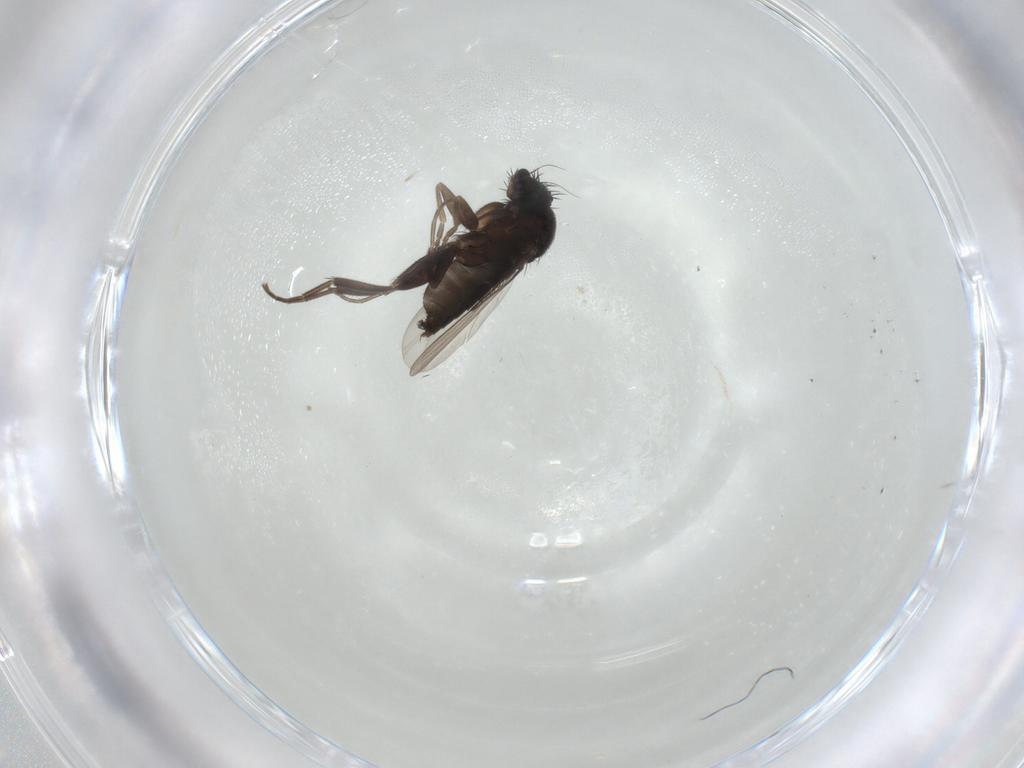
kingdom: Animalia
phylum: Arthropoda
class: Insecta
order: Diptera
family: Phoridae
